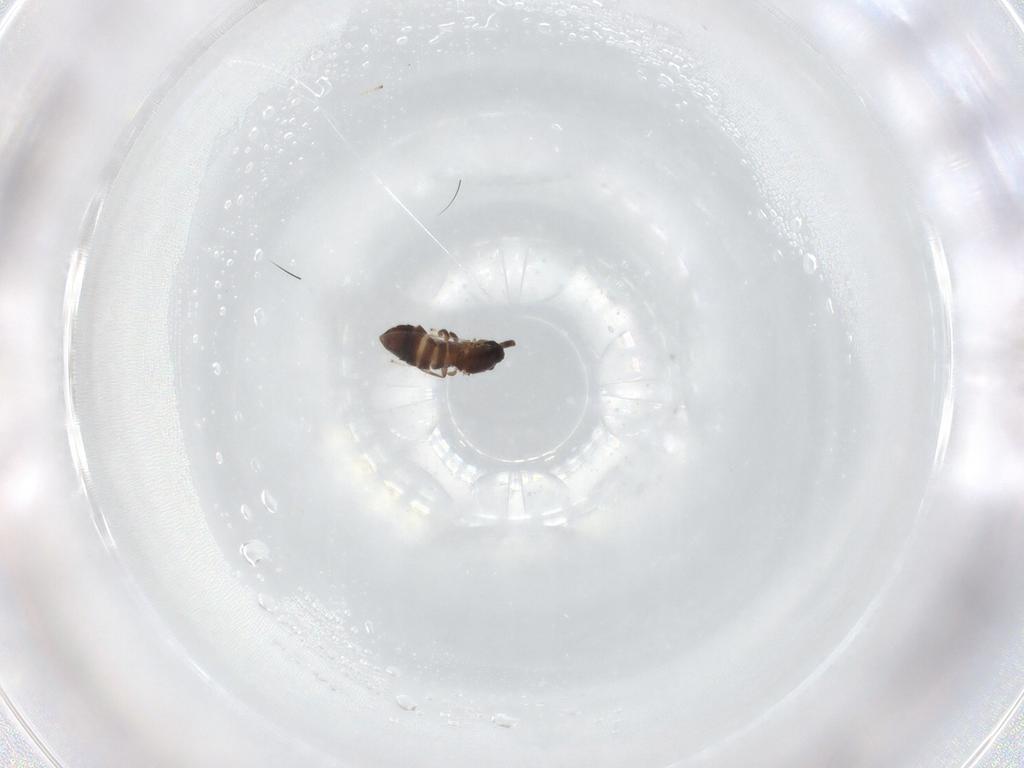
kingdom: Animalia
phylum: Arthropoda
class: Insecta
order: Diptera
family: Scatopsidae
